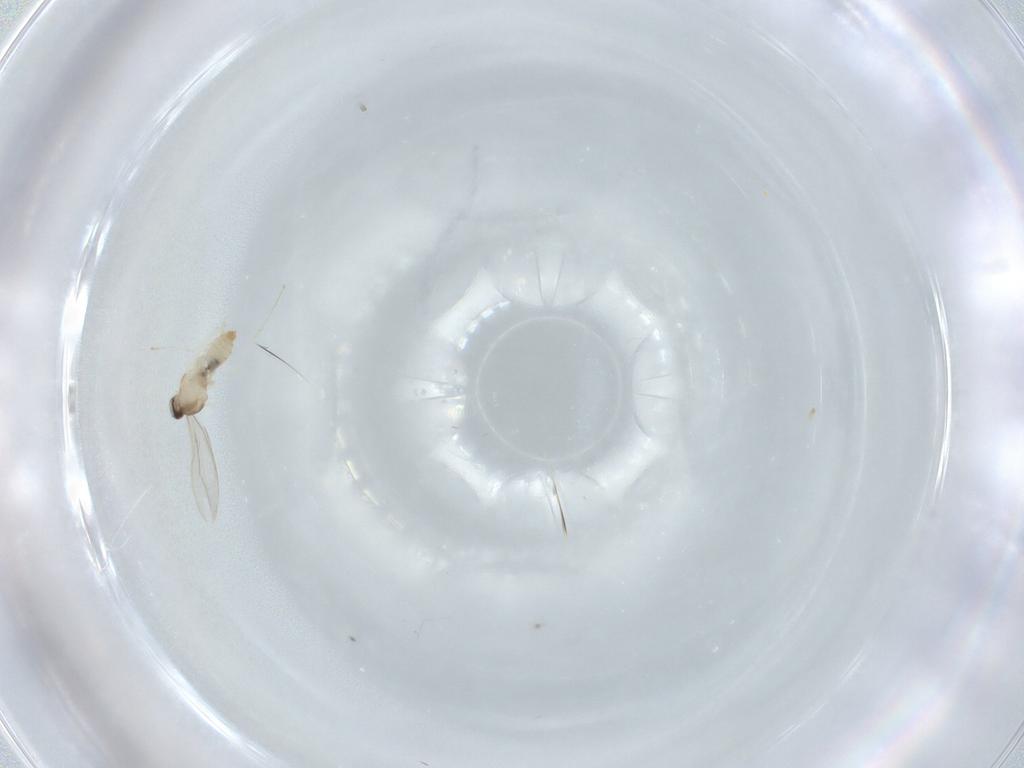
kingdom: Animalia
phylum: Arthropoda
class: Insecta
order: Diptera
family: Cecidomyiidae
